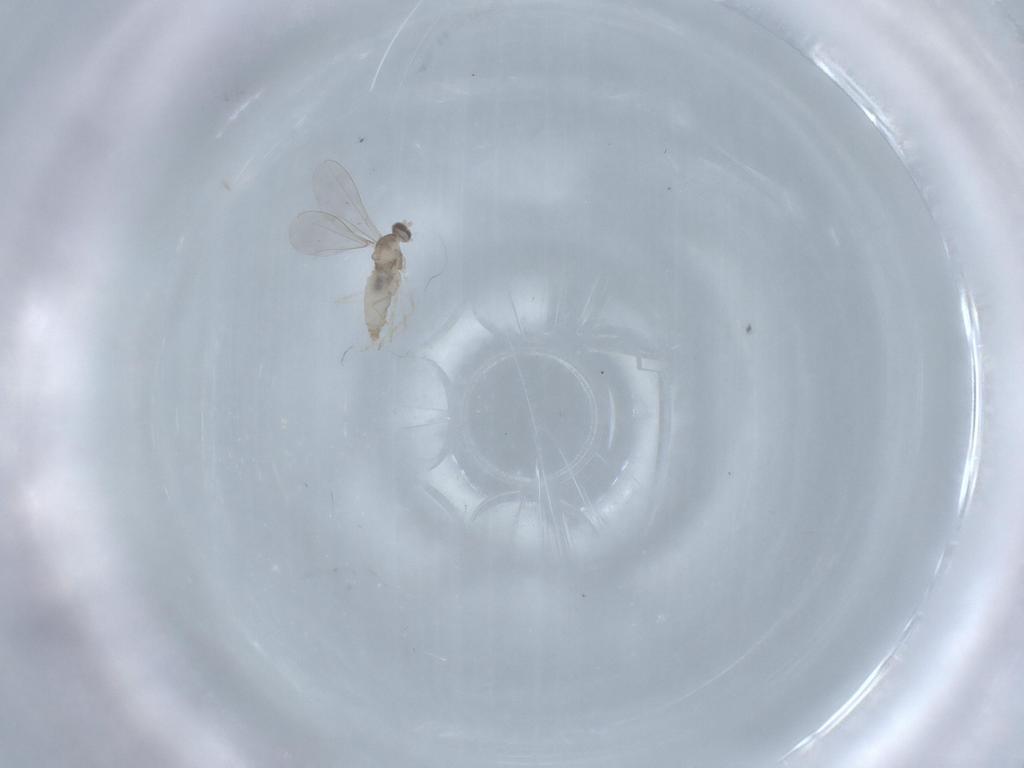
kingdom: Animalia
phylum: Arthropoda
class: Insecta
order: Diptera
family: Cecidomyiidae
